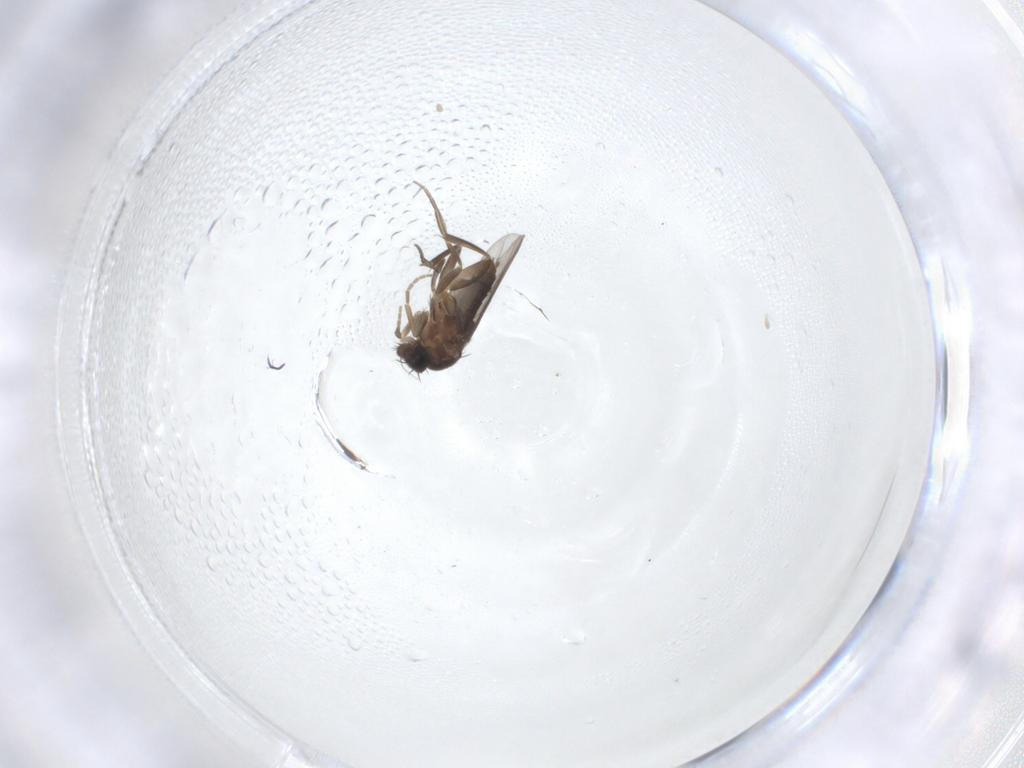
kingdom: Animalia
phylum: Arthropoda
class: Insecta
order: Diptera
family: Phoridae
